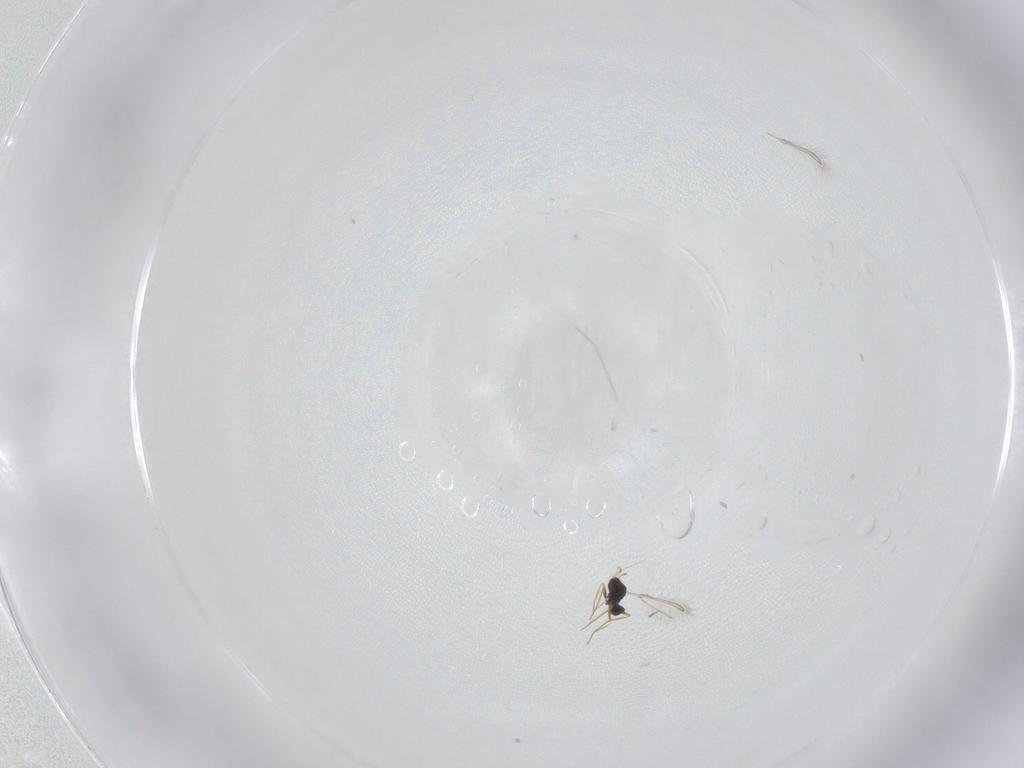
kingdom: Animalia
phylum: Arthropoda
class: Insecta
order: Hymenoptera
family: Mymaridae
